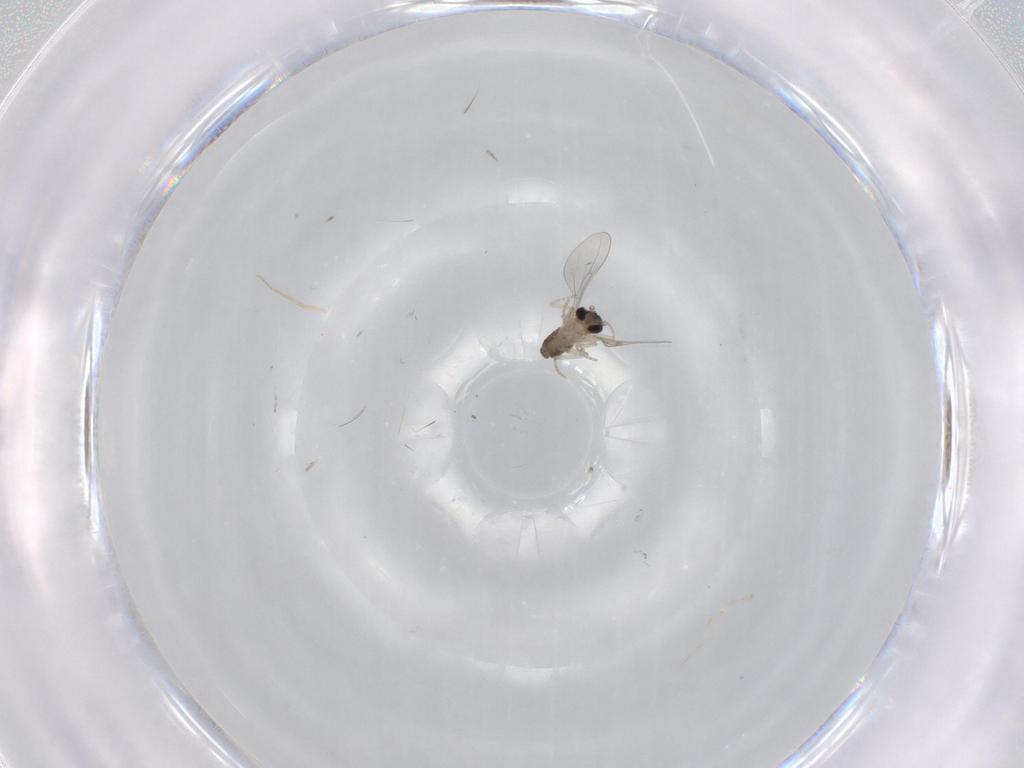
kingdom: Animalia
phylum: Arthropoda
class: Insecta
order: Diptera
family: Cecidomyiidae
